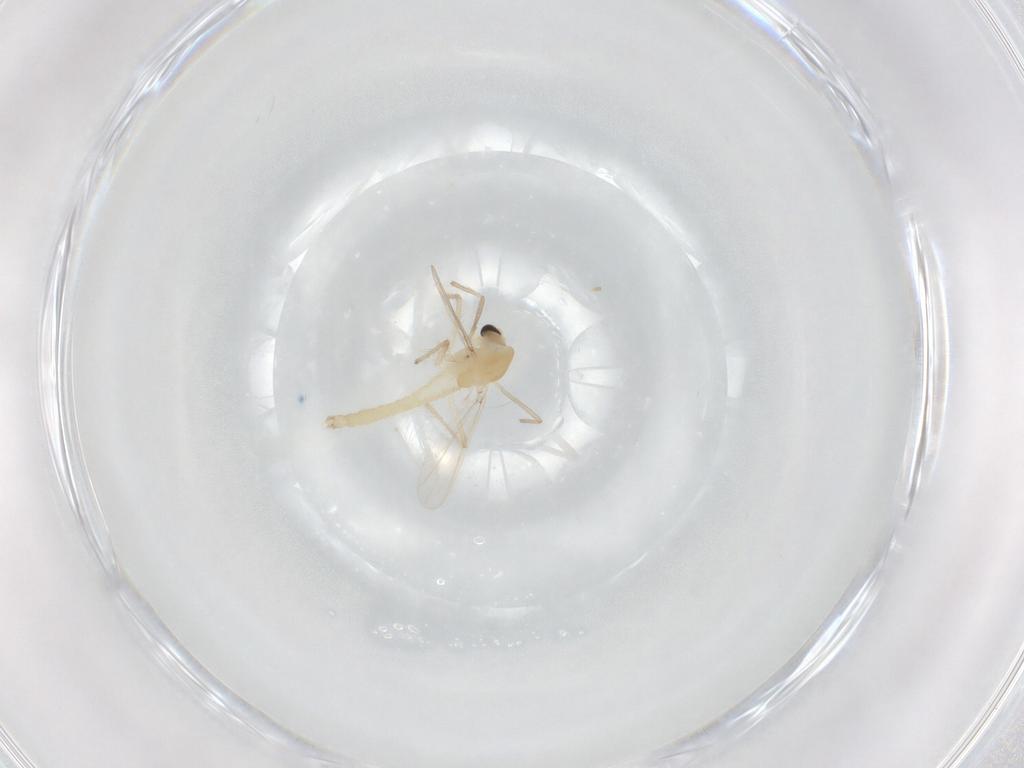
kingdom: Animalia
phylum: Arthropoda
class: Insecta
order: Diptera
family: Chironomidae
